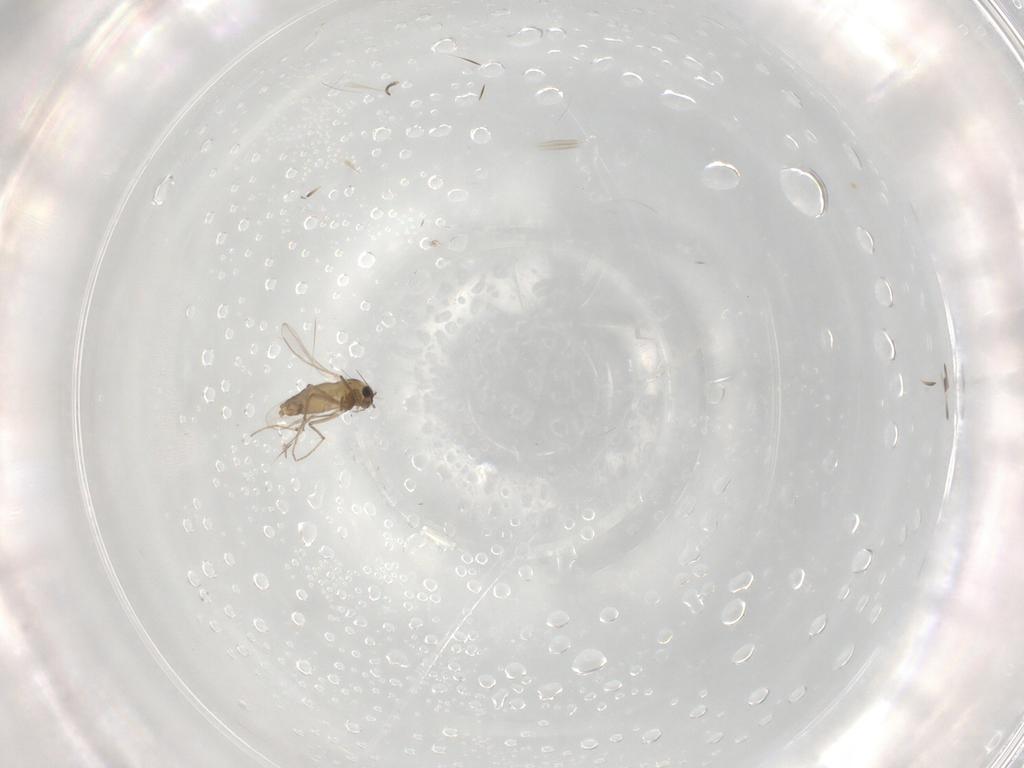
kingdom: Animalia
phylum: Arthropoda
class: Insecta
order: Diptera
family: Chironomidae
